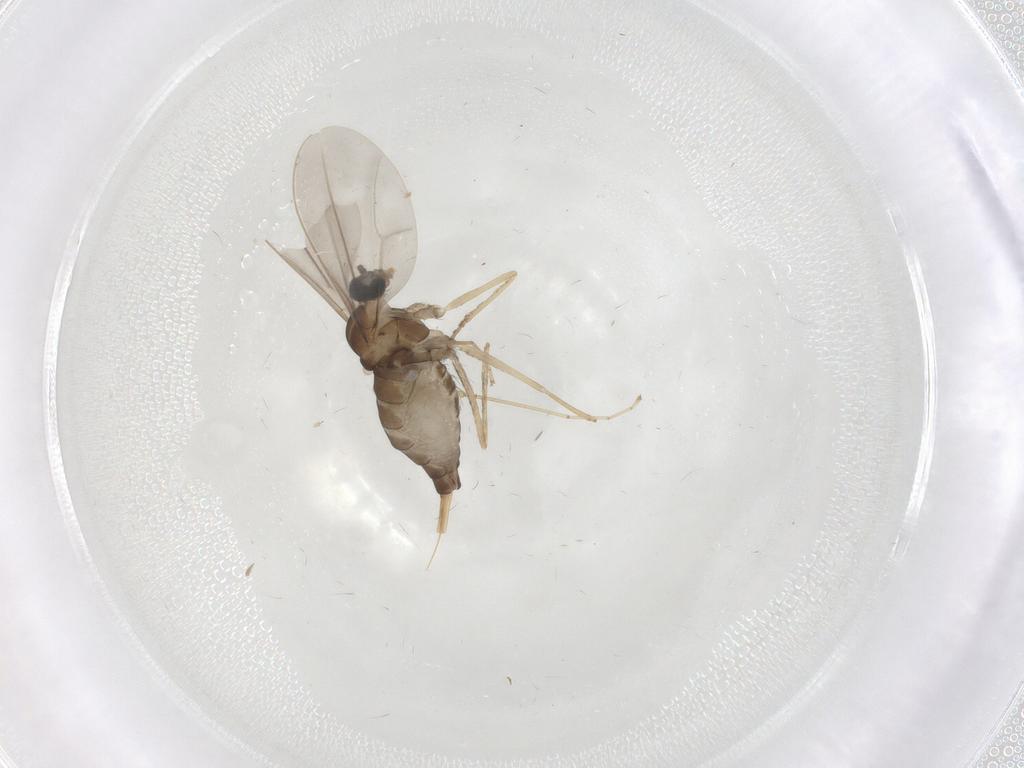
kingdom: Animalia
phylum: Arthropoda
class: Insecta
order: Diptera
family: Cecidomyiidae
